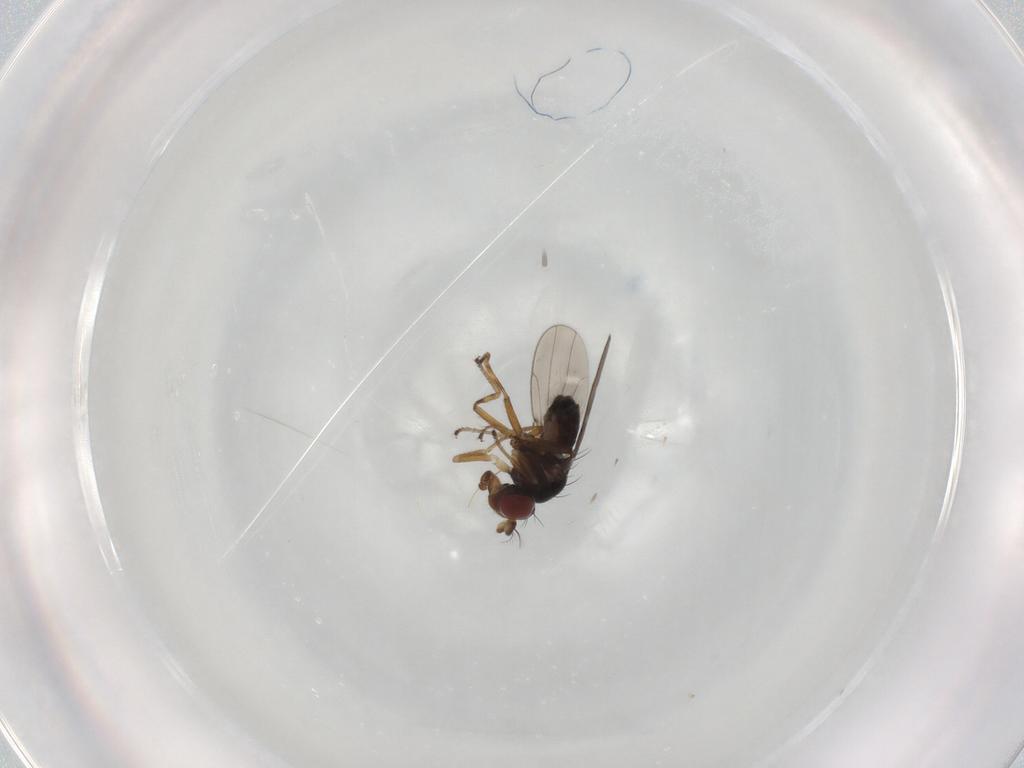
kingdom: Animalia
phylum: Arthropoda
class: Insecta
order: Diptera
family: Ephydridae
